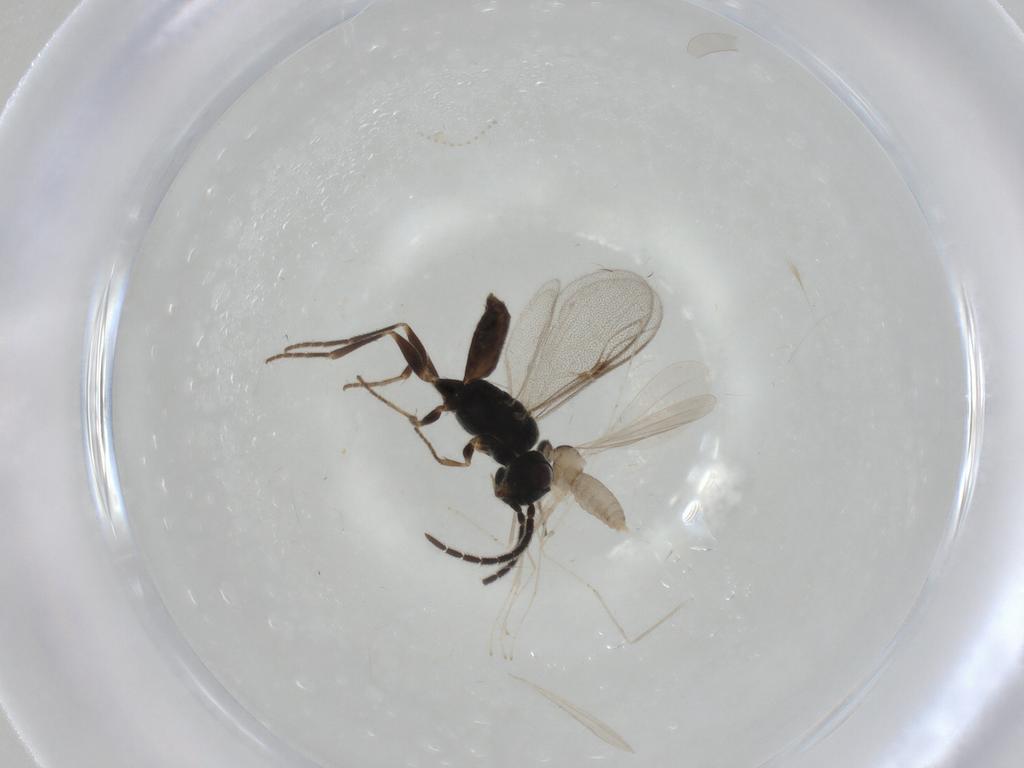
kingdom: Animalia
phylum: Arthropoda
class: Insecta
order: Diptera
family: Cecidomyiidae
